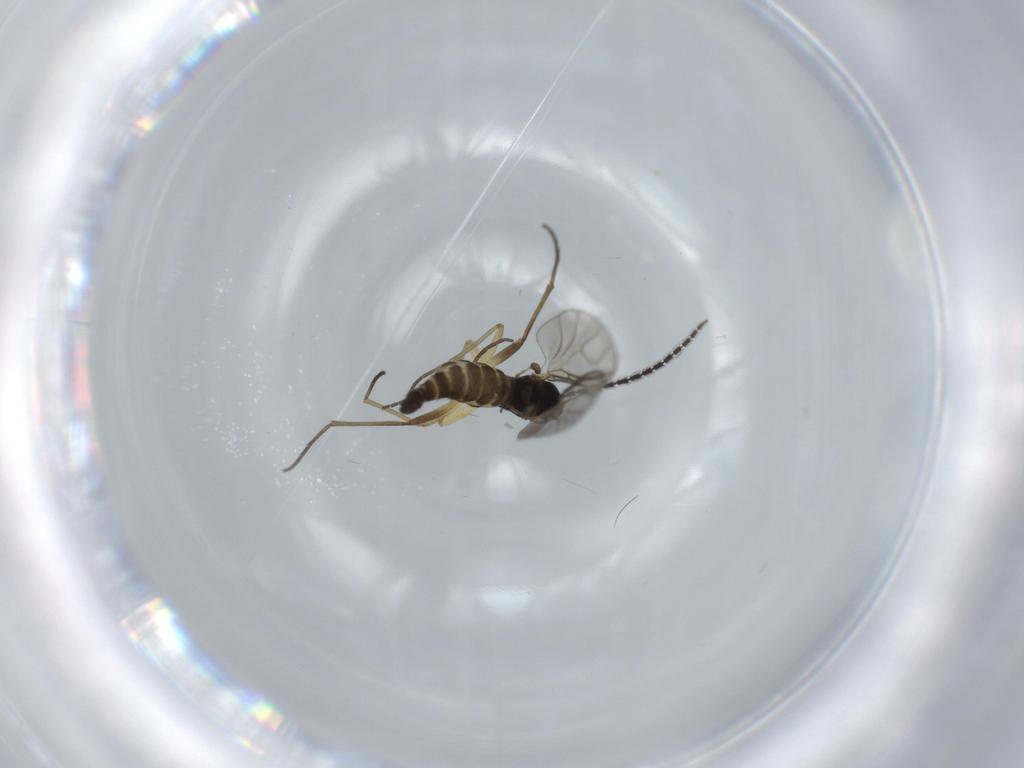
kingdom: Animalia
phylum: Arthropoda
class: Insecta
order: Diptera
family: Sciaridae
